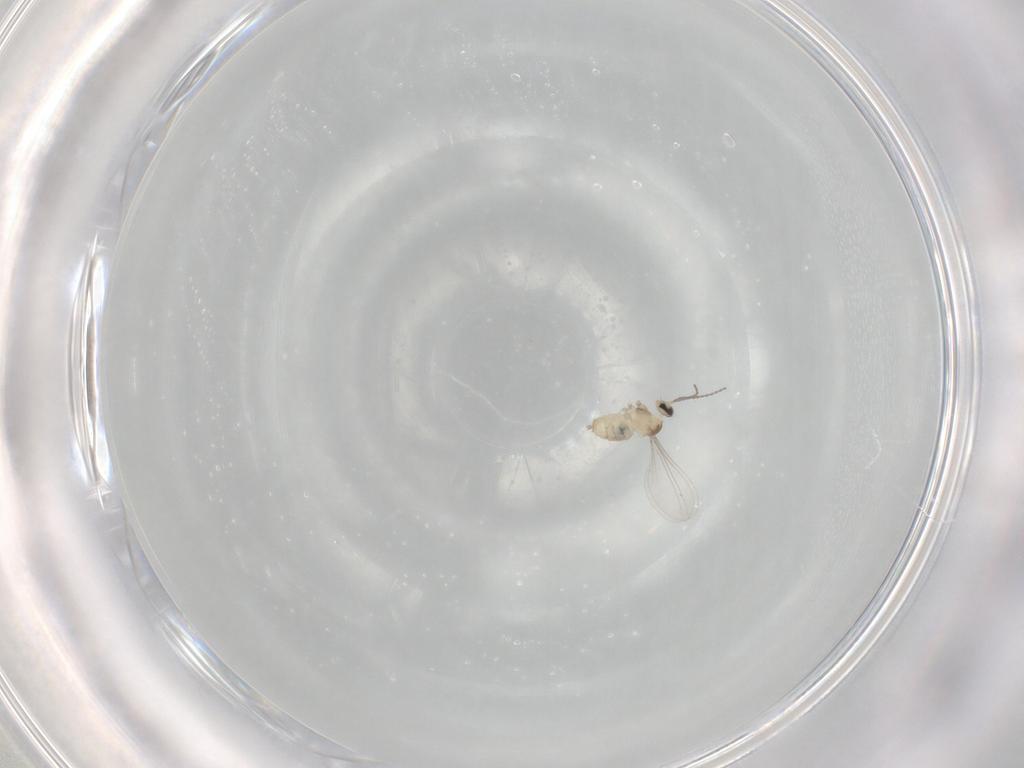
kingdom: Animalia
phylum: Arthropoda
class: Insecta
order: Diptera
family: Cecidomyiidae
